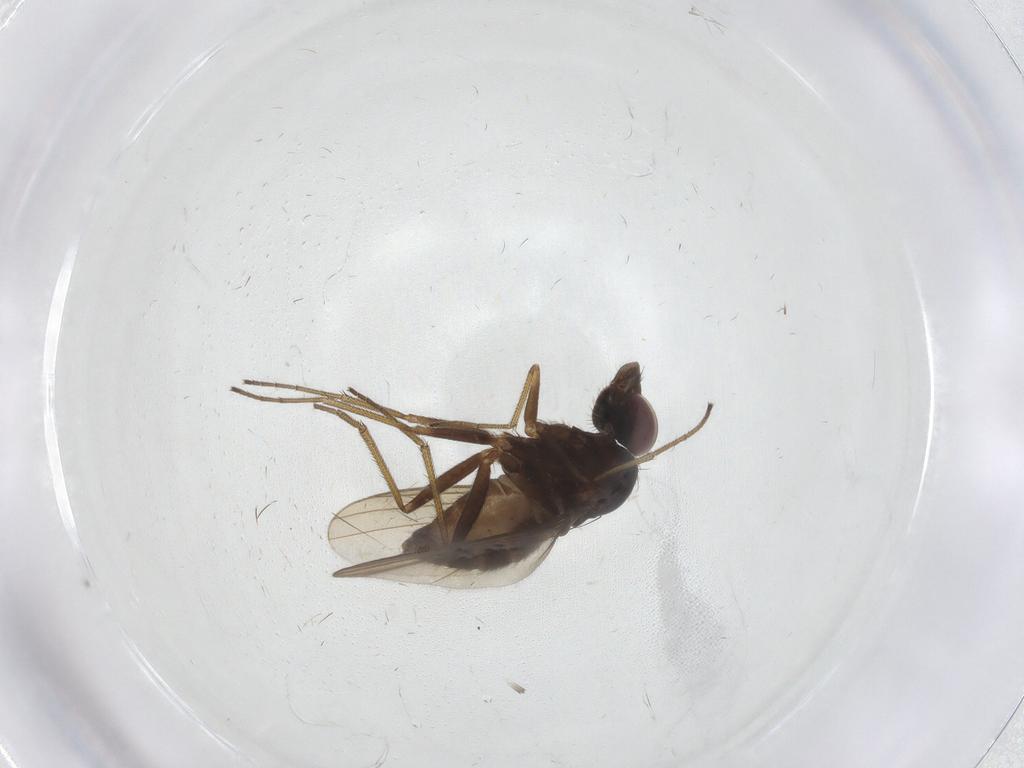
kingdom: Animalia
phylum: Arthropoda
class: Insecta
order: Diptera
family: Dolichopodidae
